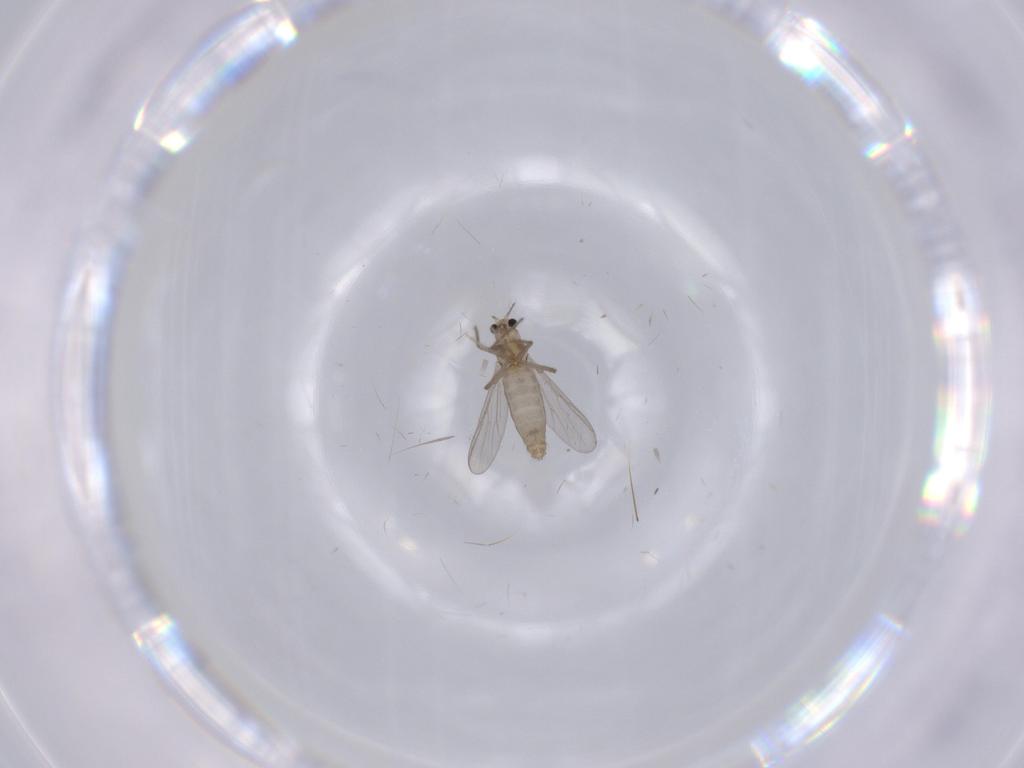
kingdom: Animalia
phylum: Arthropoda
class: Insecta
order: Diptera
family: Chironomidae
